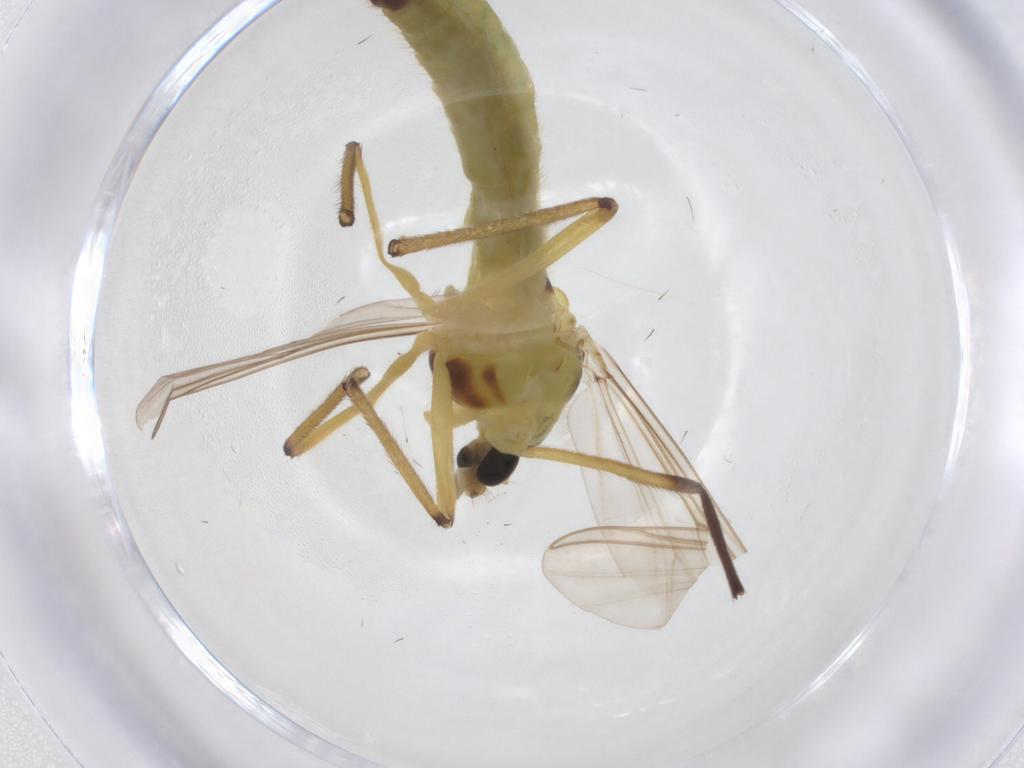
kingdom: Animalia
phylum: Arthropoda
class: Insecta
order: Diptera
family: Chironomidae
